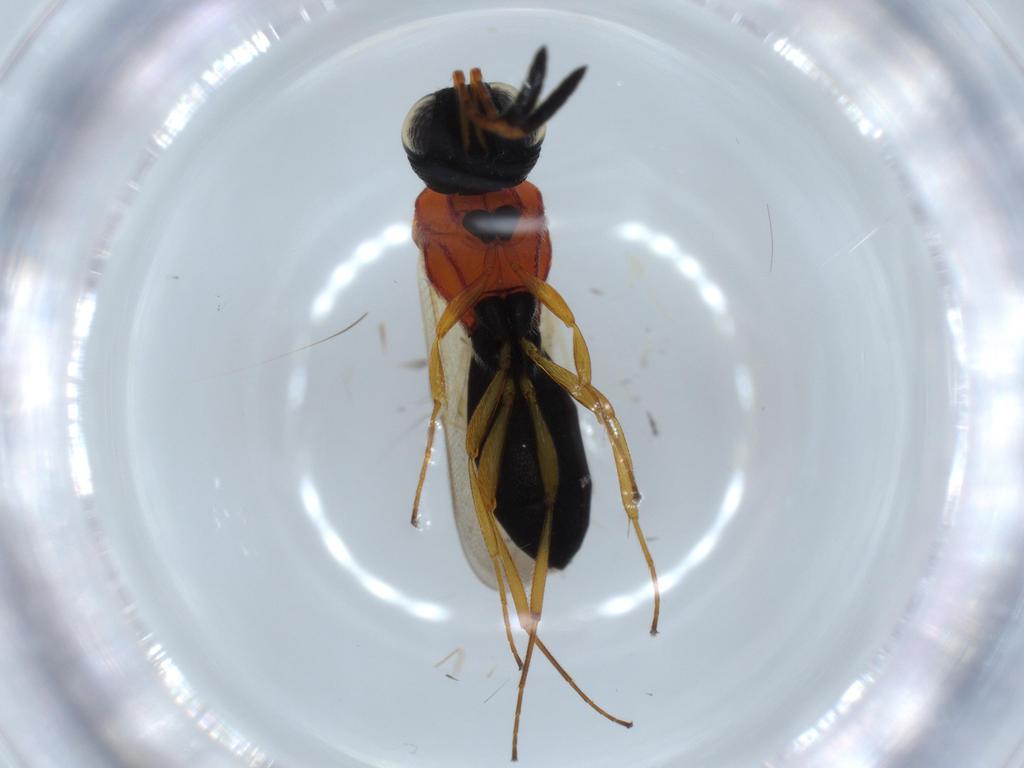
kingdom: Animalia
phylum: Arthropoda
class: Insecta
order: Hymenoptera
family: Scelionidae
